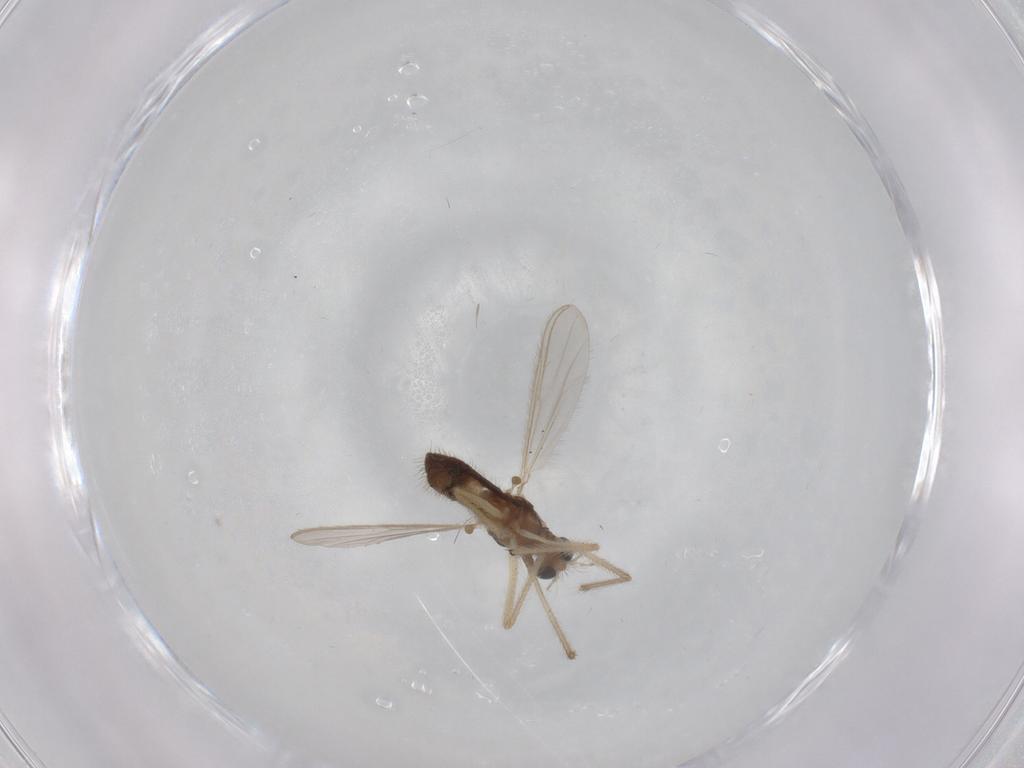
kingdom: Animalia
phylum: Arthropoda
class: Insecta
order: Diptera
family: Chironomidae
